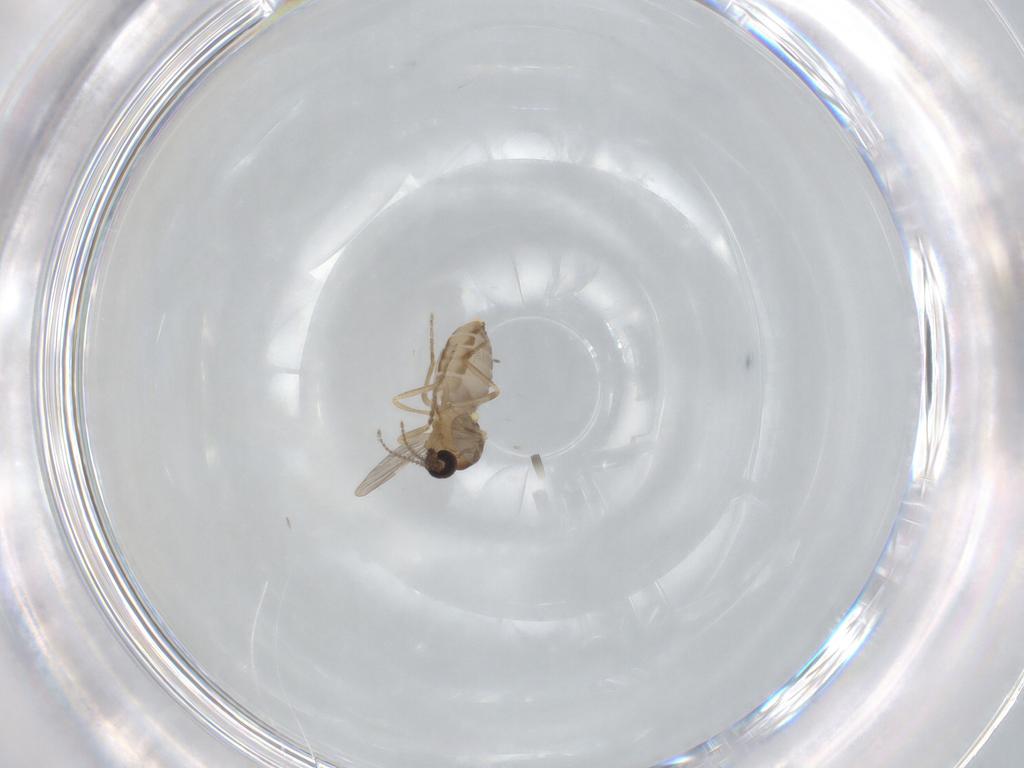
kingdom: Animalia
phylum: Arthropoda
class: Insecta
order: Diptera
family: Ceratopogonidae
